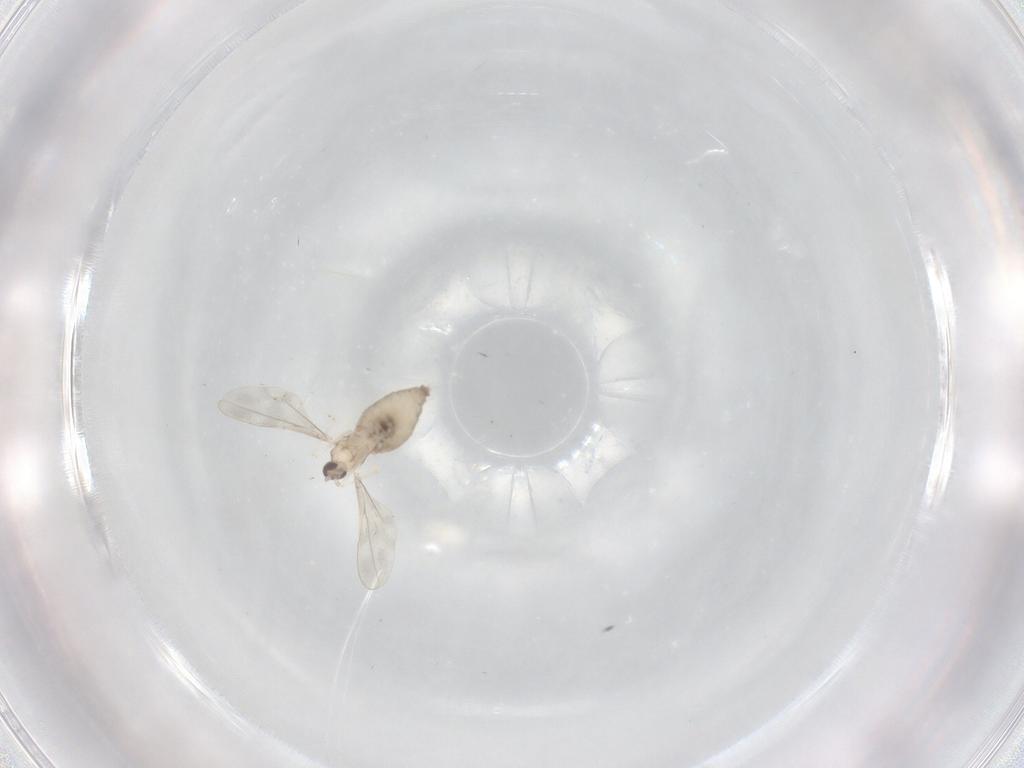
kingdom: Animalia
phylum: Arthropoda
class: Insecta
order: Diptera
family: Cecidomyiidae
